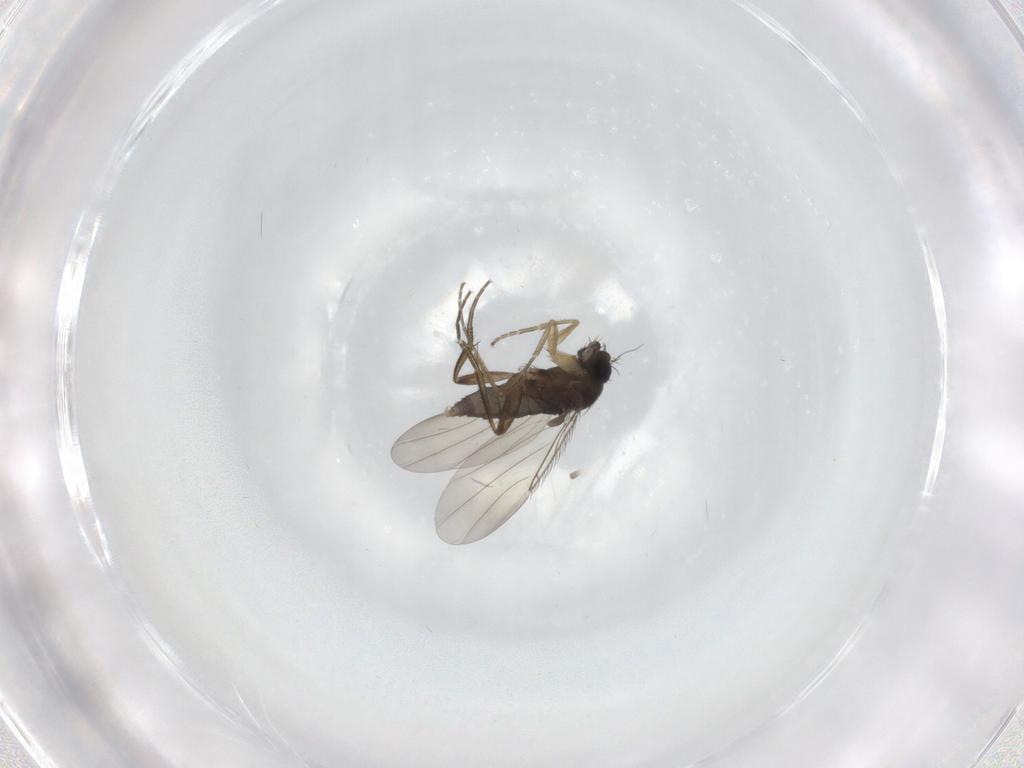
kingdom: Animalia
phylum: Arthropoda
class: Insecta
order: Diptera
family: Phoridae
